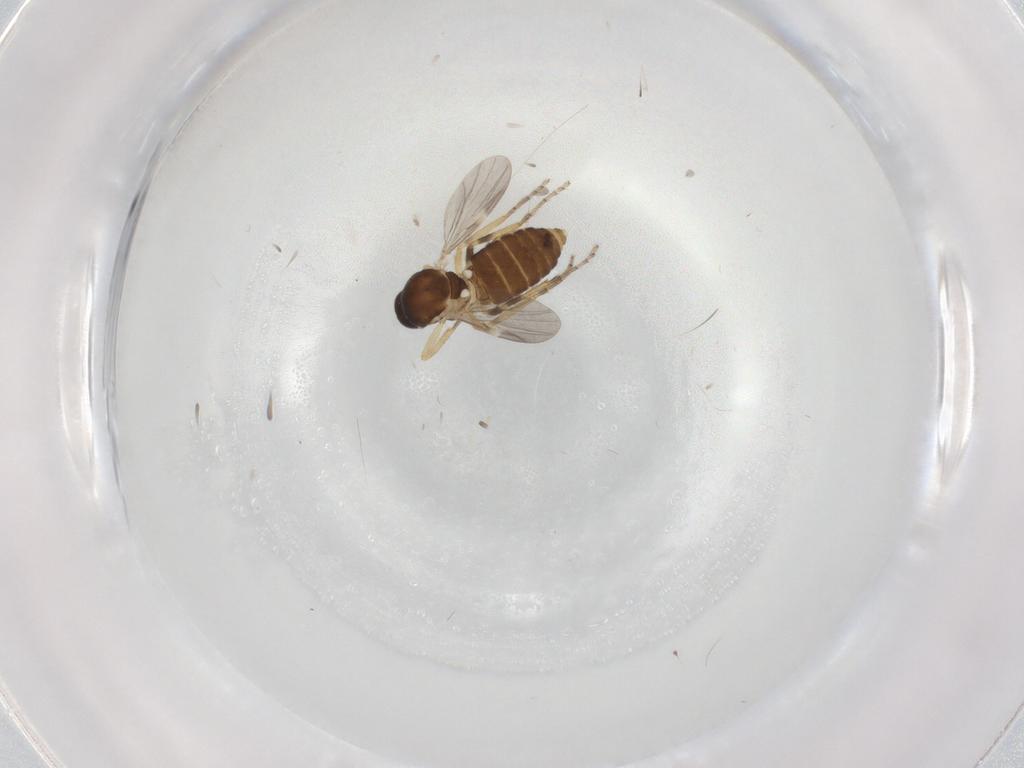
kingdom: Animalia
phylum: Arthropoda
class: Insecta
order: Diptera
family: Ceratopogonidae
